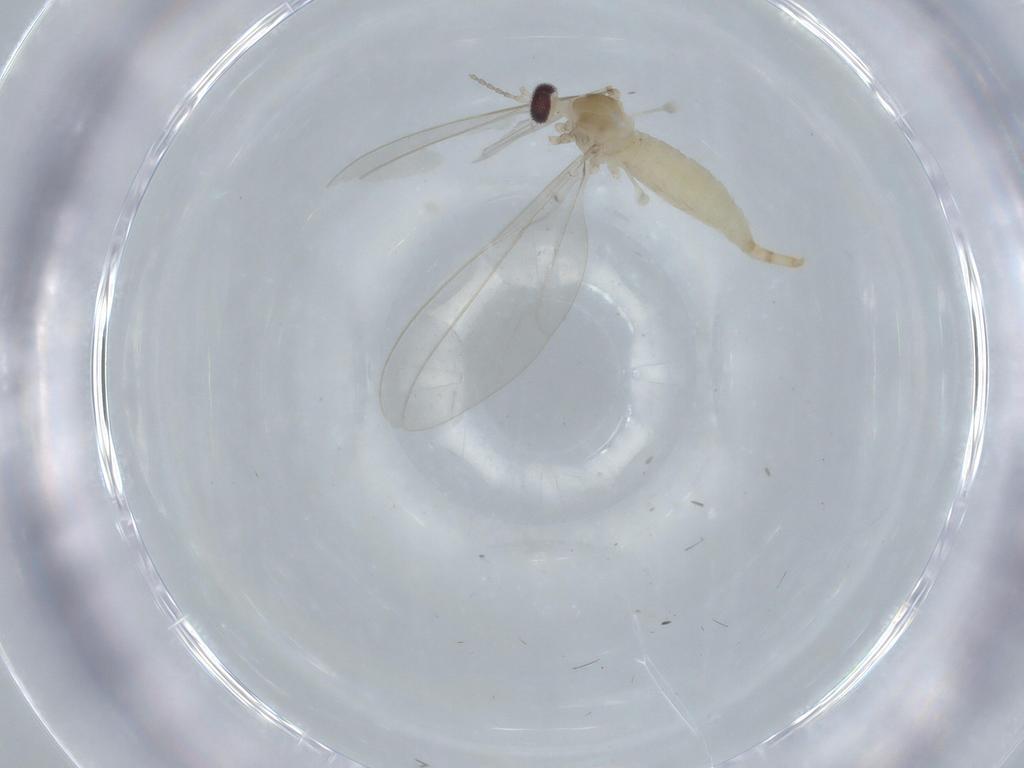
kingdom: Animalia
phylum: Arthropoda
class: Insecta
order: Diptera
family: Cecidomyiidae
